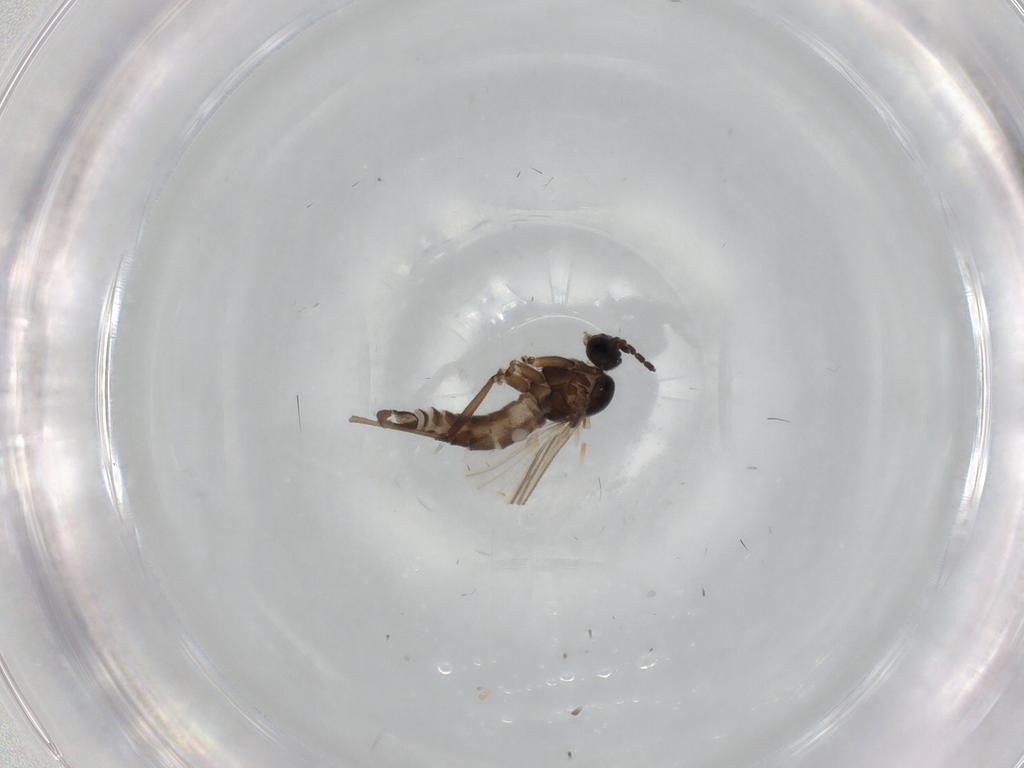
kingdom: Animalia
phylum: Arthropoda
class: Insecta
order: Diptera
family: Sciaridae
